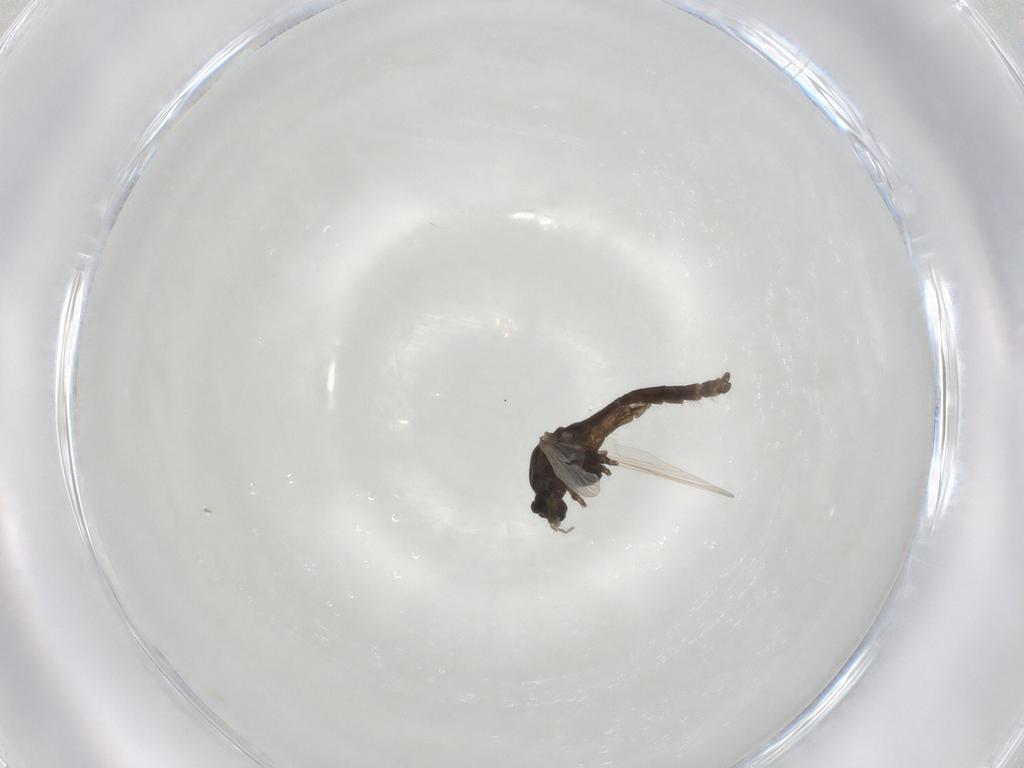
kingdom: Animalia
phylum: Arthropoda
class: Insecta
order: Diptera
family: Chironomidae
